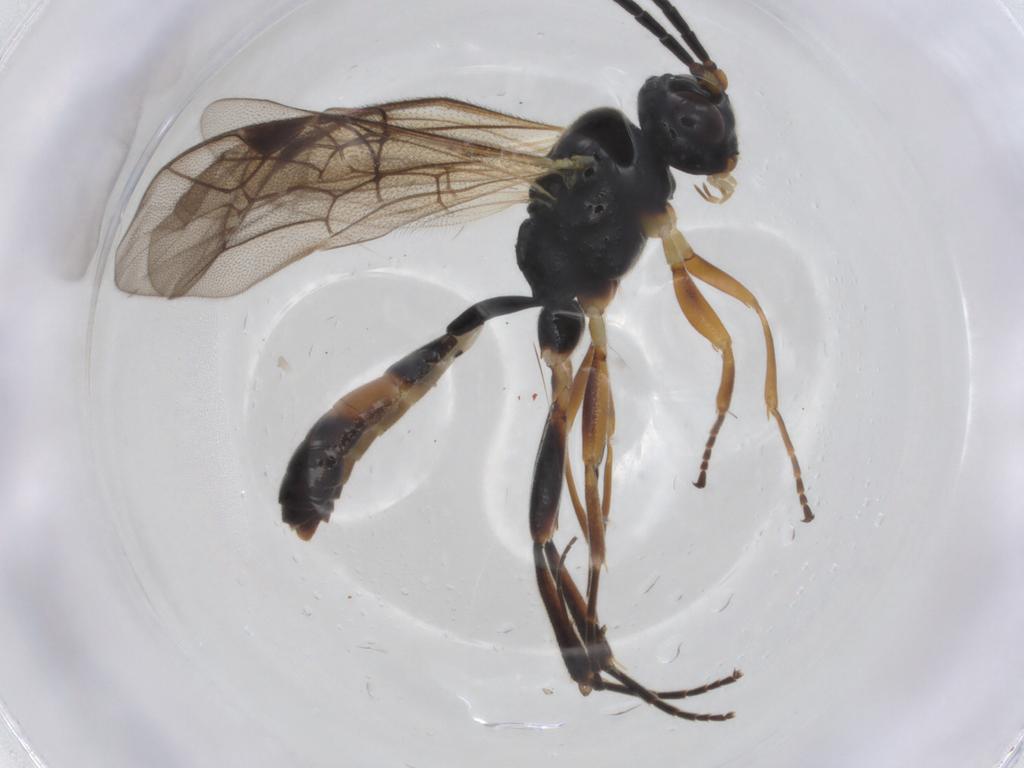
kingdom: Animalia
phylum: Arthropoda
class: Insecta
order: Hymenoptera
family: Ichneumonidae
